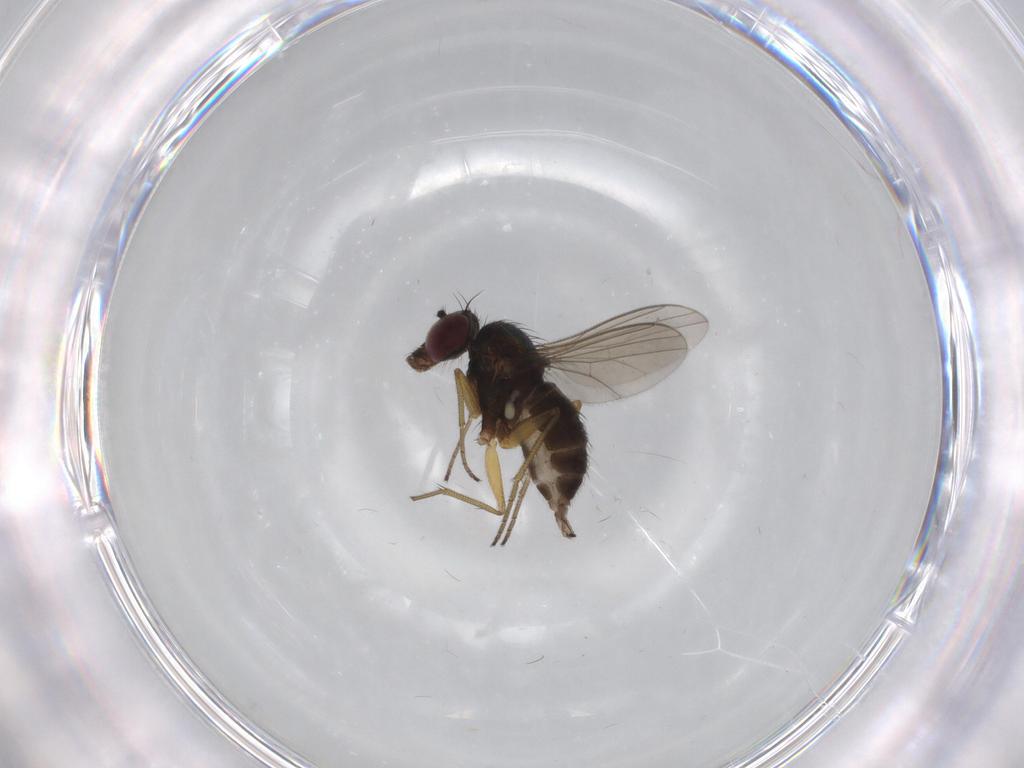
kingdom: Animalia
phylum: Arthropoda
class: Insecta
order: Diptera
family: Dolichopodidae
